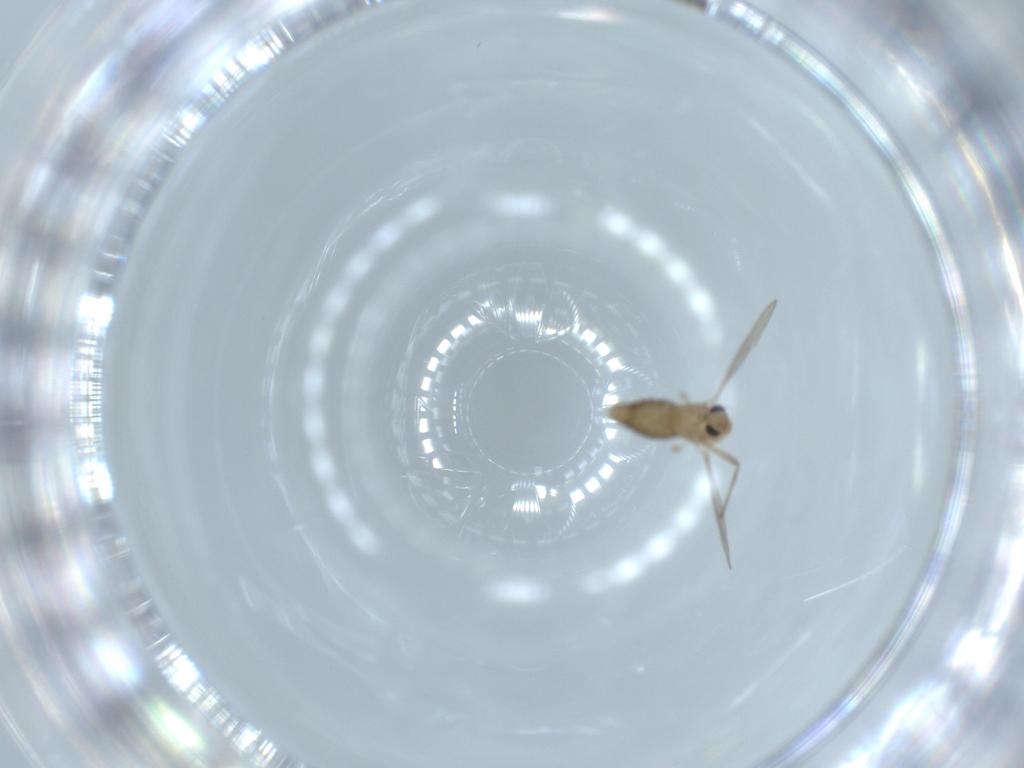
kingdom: Animalia
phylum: Arthropoda
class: Insecta
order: Diptera
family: Chironomidae
